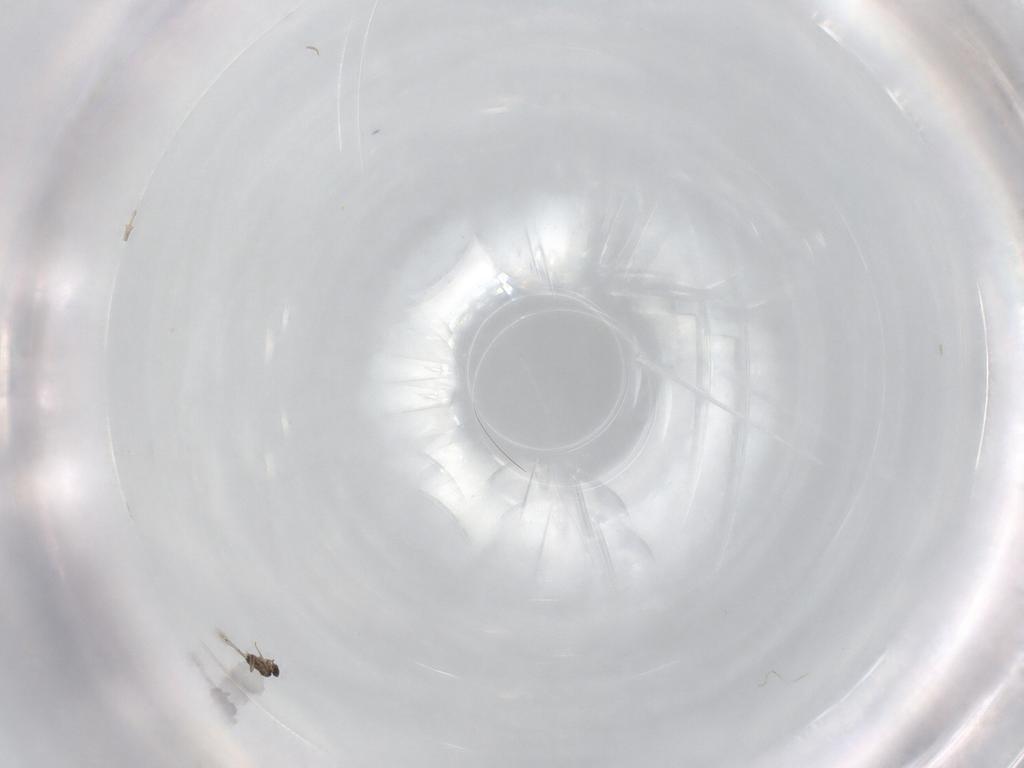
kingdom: Animalia
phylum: Arthropoda
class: Insecta
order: Hymenoptera
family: Mymaridae
